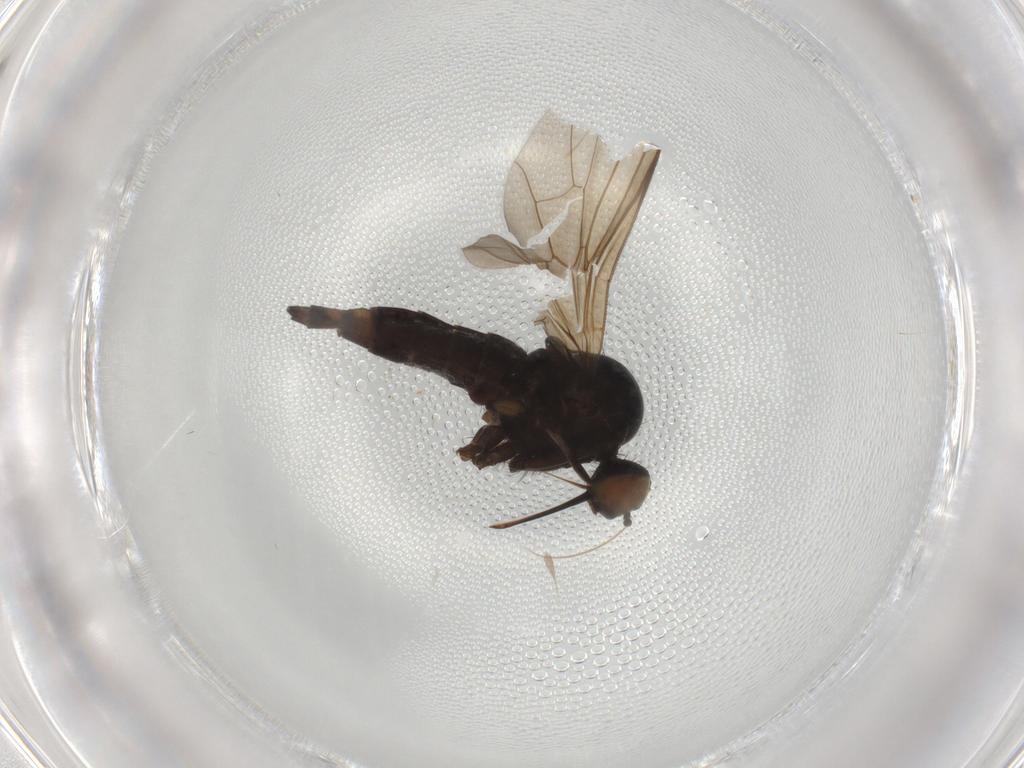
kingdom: Animalia
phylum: Arthropoda
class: Insecta
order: Diptera
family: Empididae
